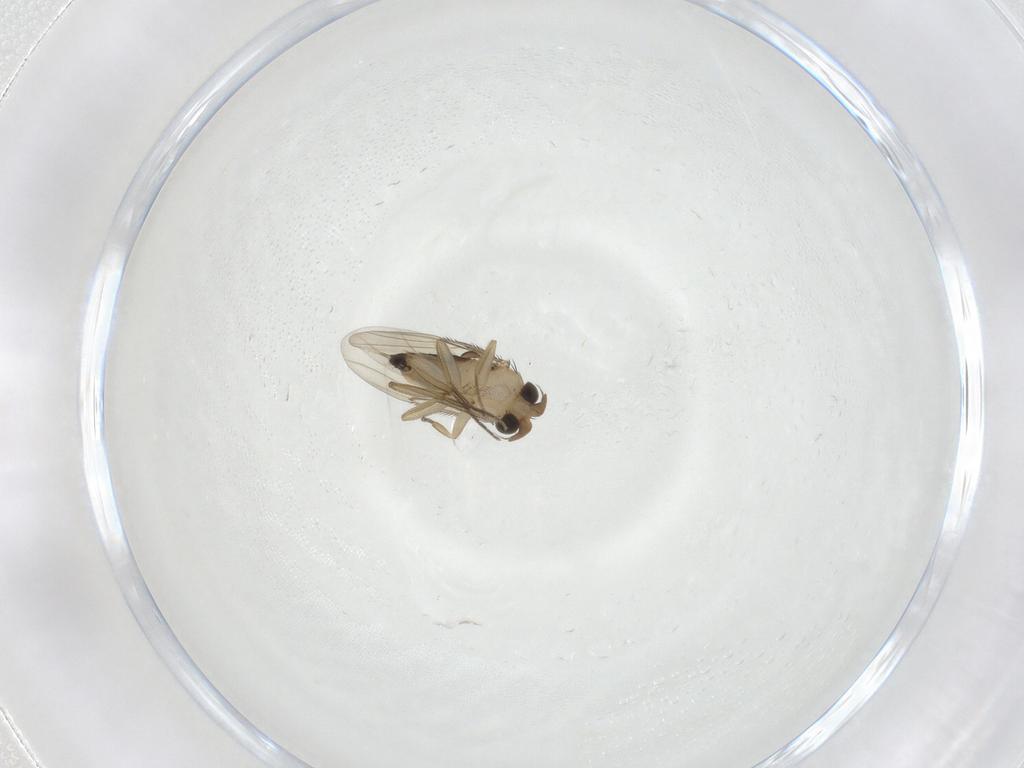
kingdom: Animalia
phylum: Arthropoda
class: Insecta
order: Diptera
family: Phoridae
